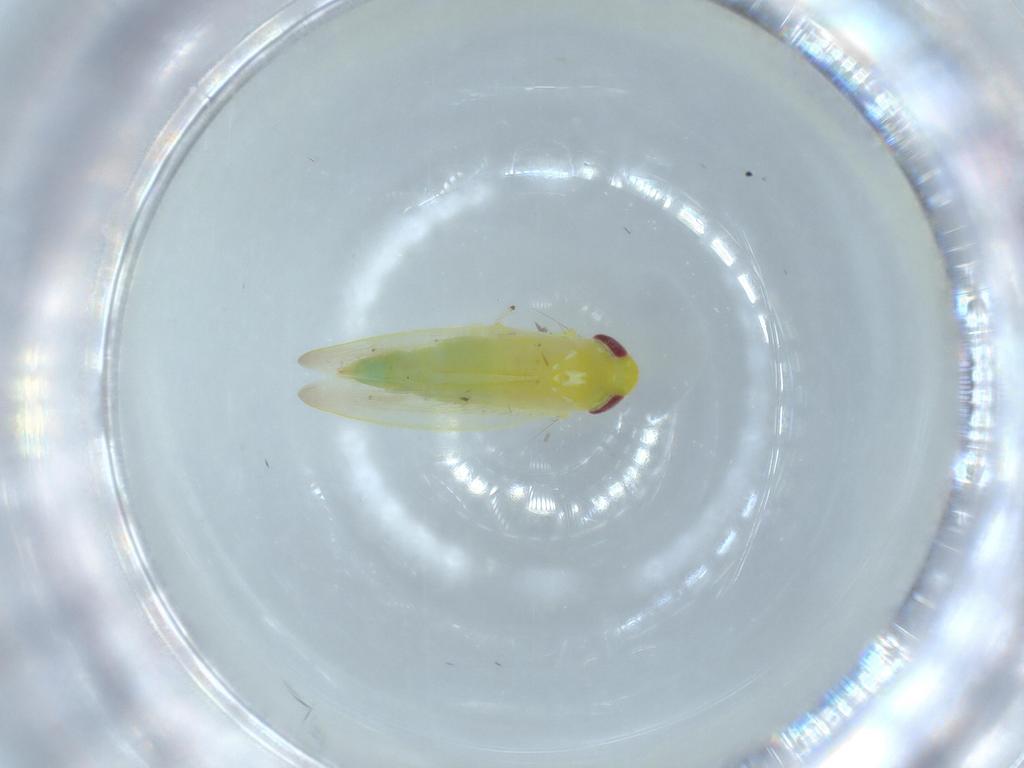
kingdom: Animalia
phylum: Arthropoda
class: Insecta
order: Hemiptera
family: Cicadellidae
